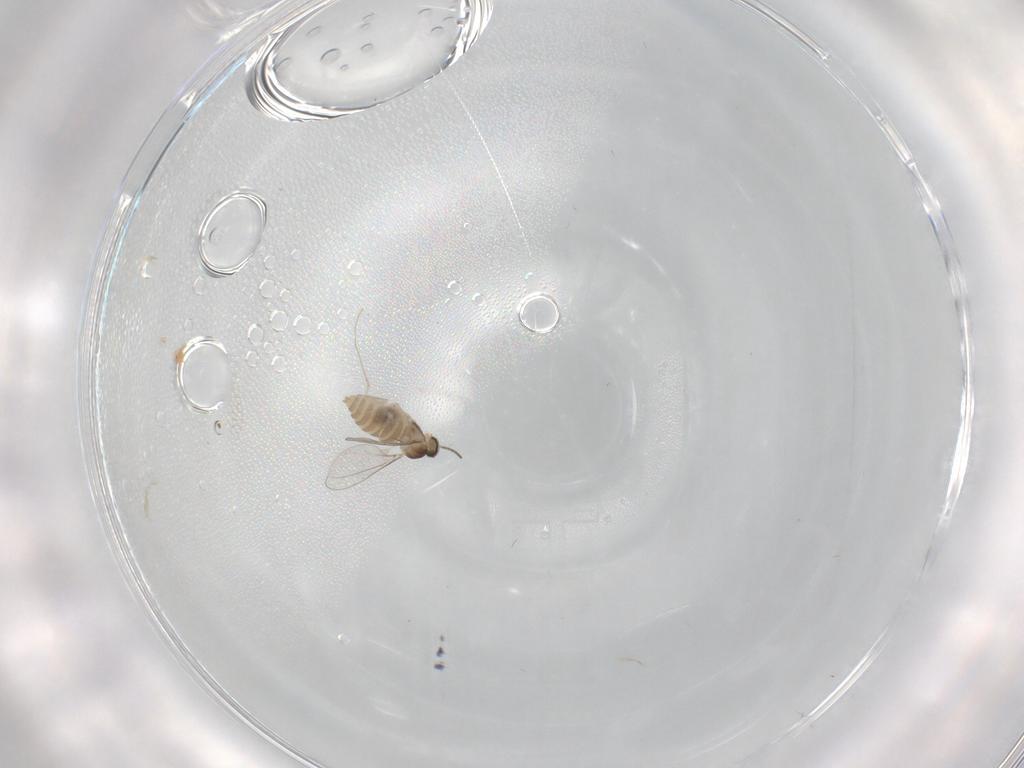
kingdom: Animalia
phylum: Arthropoda
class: Insecta
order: Diptera
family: Cecidomyiidae
